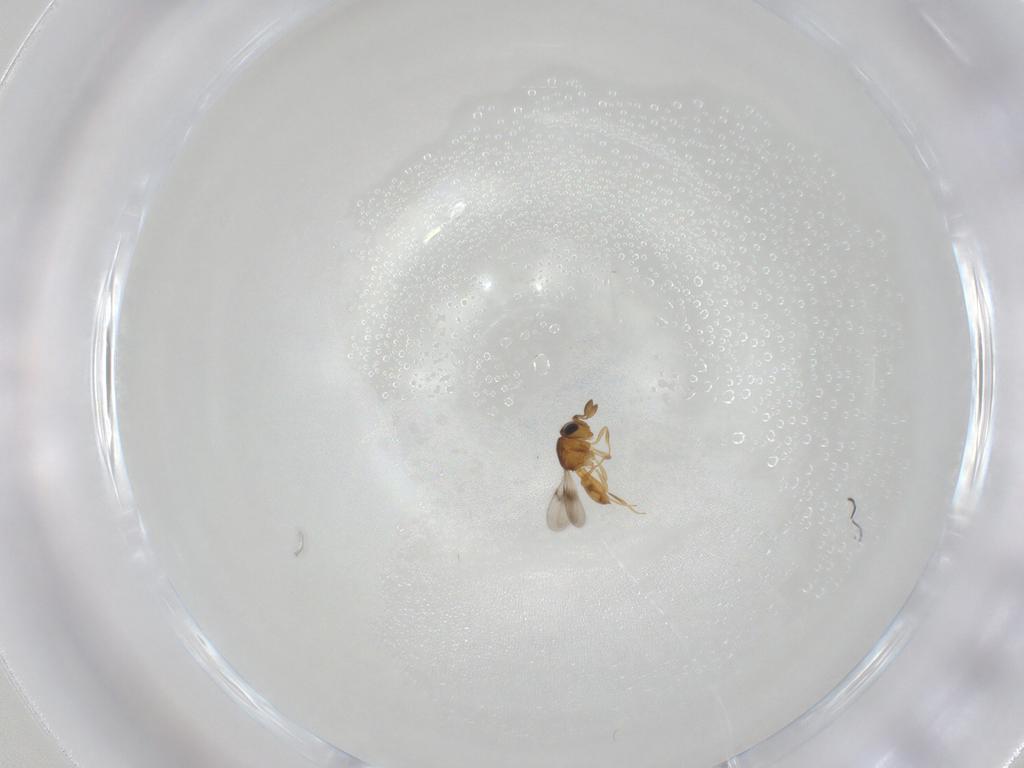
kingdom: Animalia
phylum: Arthropoda
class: Insecta
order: Hymenoptera
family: Scelionidae
